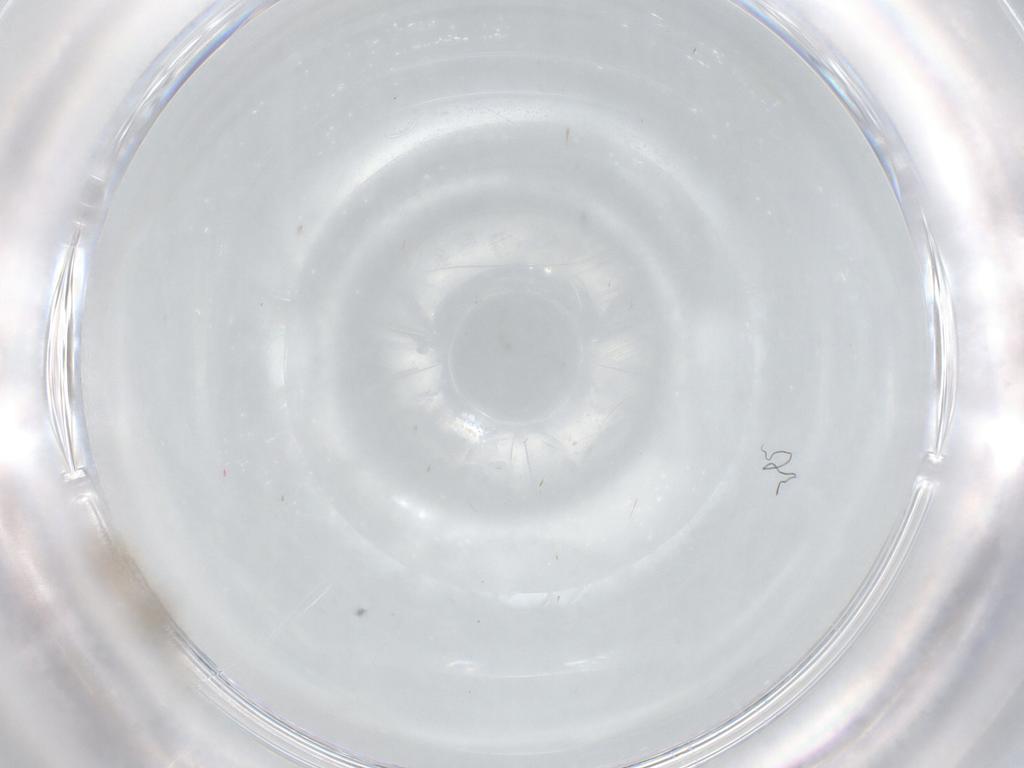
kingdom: Animalia
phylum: Arthropoda
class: Insecta
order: Diptera
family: Cecidomyiidae
